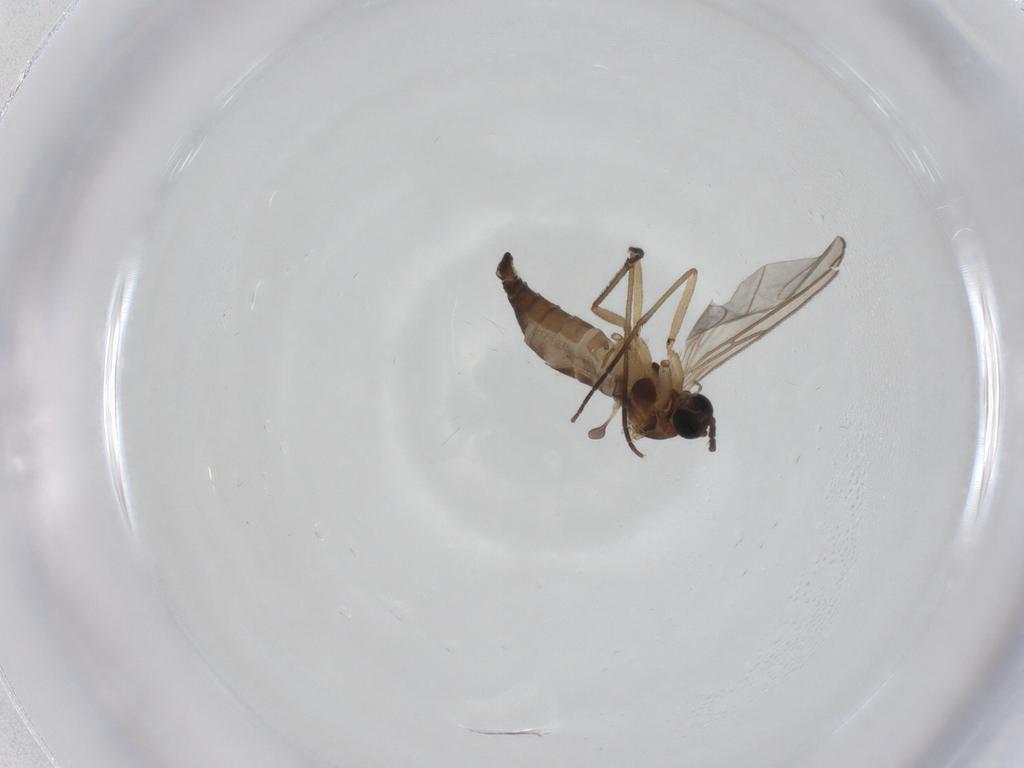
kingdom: Animalia
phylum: Arthropoda
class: Insecta
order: Diptera
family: Sciaridae
